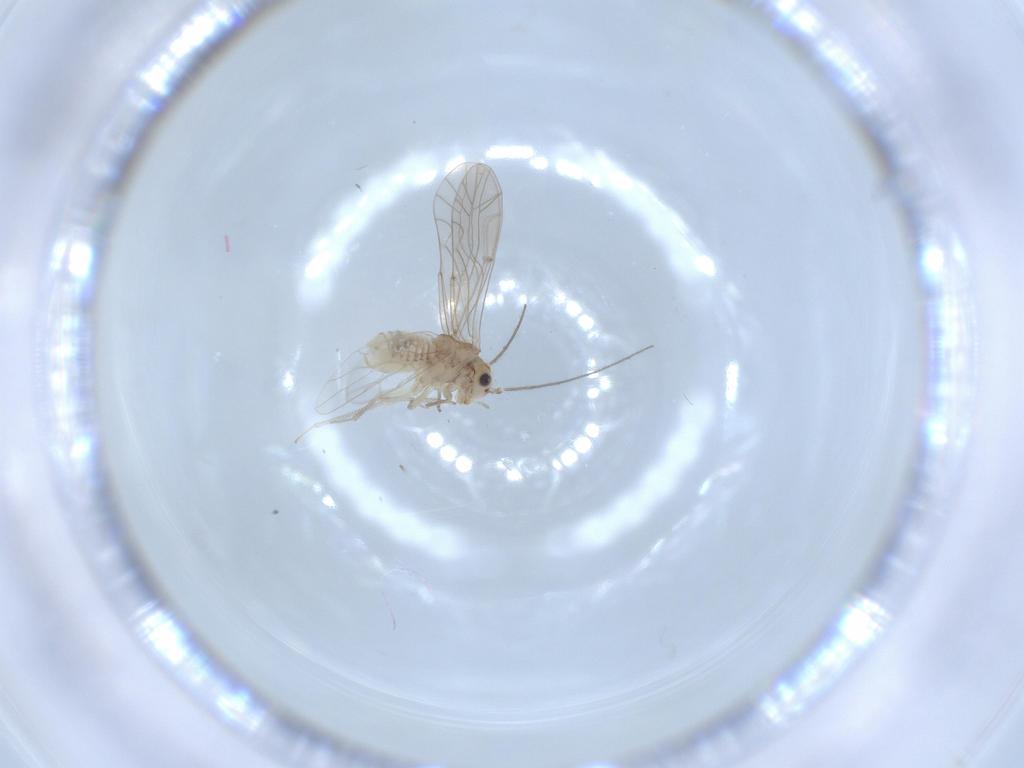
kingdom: Animalia
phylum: Arthropoda
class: Insecta
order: Psocodea
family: Lachesillidae
